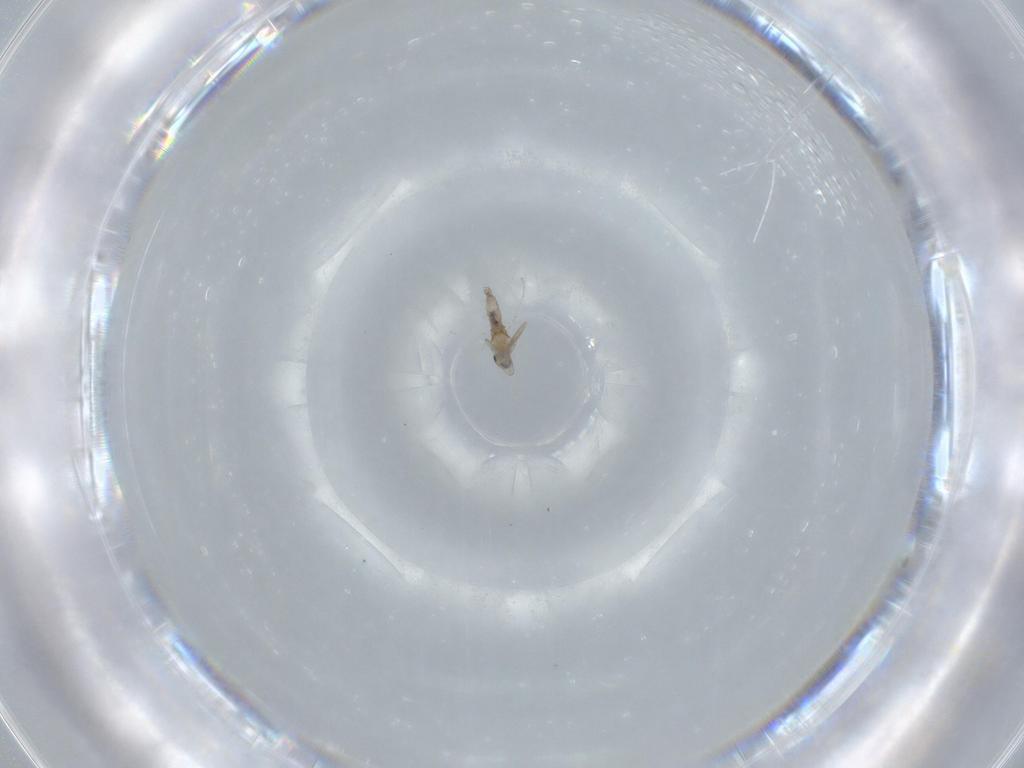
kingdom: Animalia
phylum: Arthropoda
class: Insecta
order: Diptera
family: Cecidomyiidae
